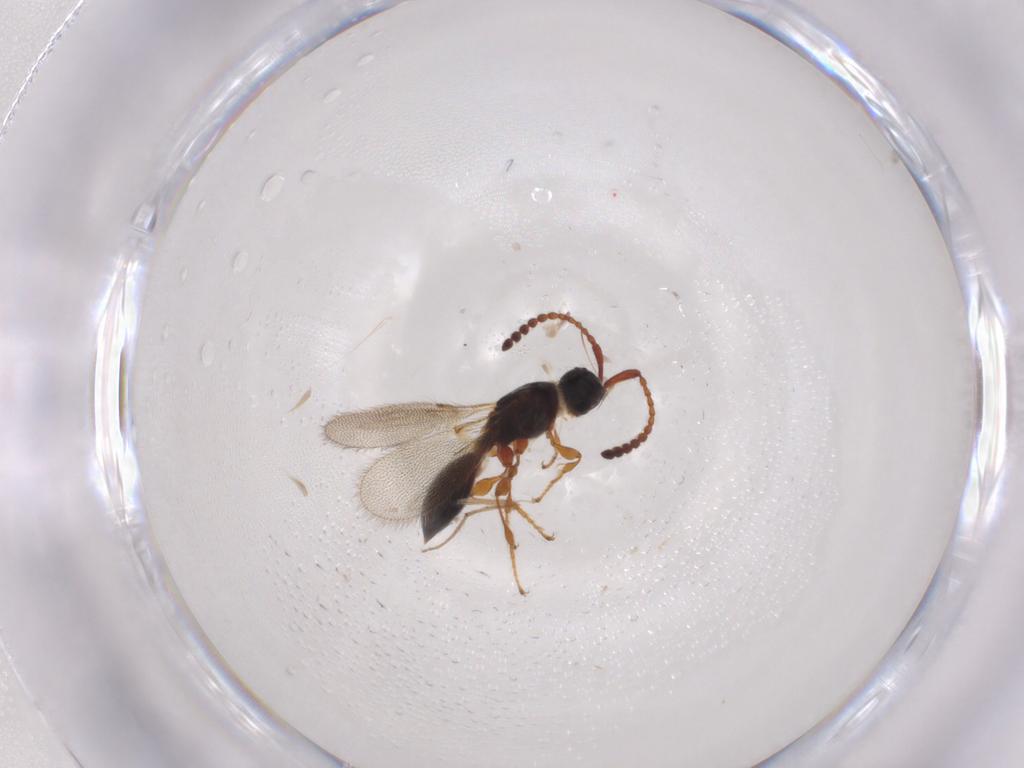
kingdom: Animalia
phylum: Arthropoda
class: Insecta
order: Hymenoptera
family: Diapriidae
